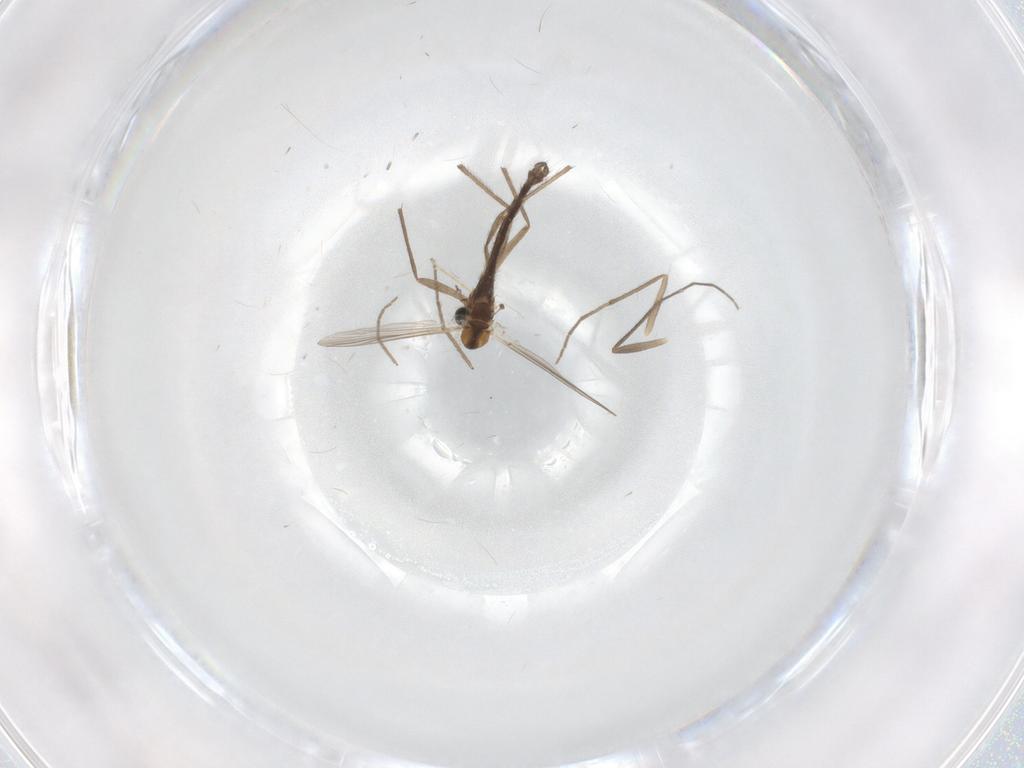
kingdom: Animalia
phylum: Arthropoda
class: Insecta
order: Diptera
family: Chironomidae
